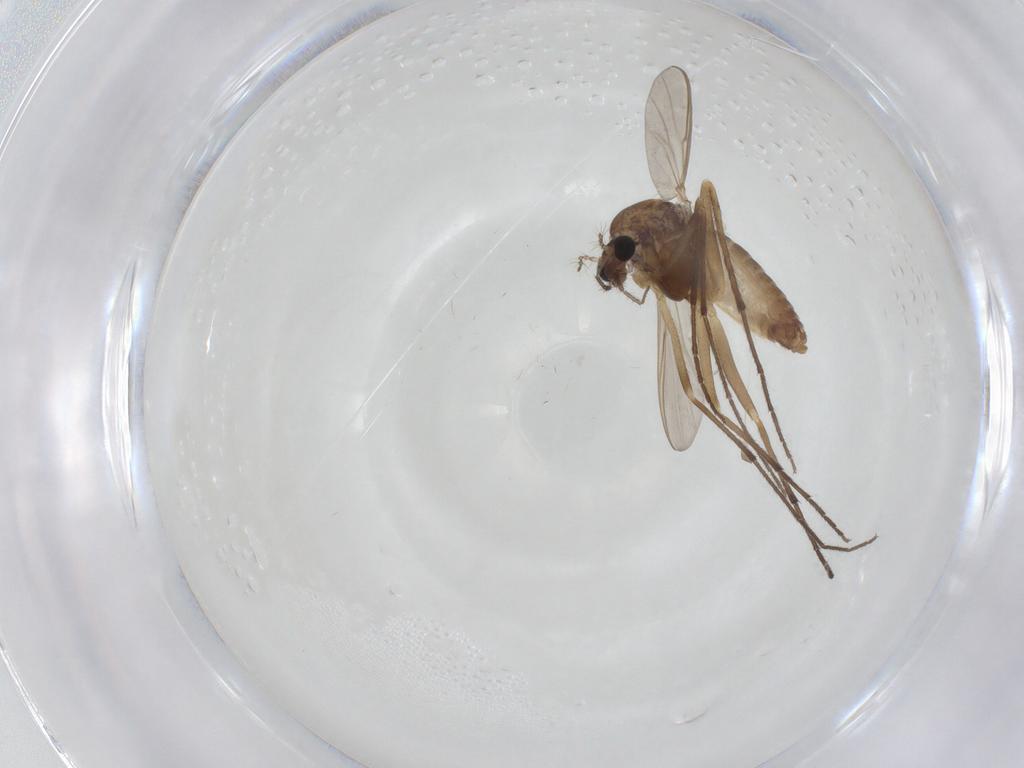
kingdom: Animalia
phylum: Arthropoda
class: Insecta
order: Diptera
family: Chironomidae
